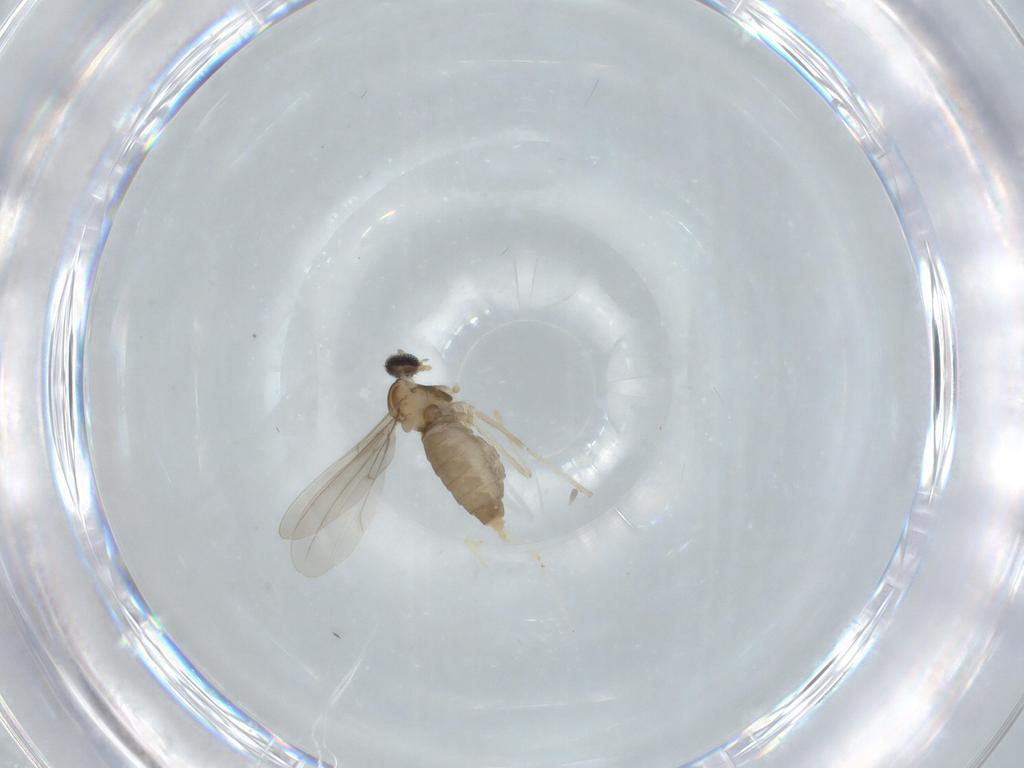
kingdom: Animalia
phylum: Arthropoda
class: Insecta
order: Diptera
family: Cecidomyiidae
